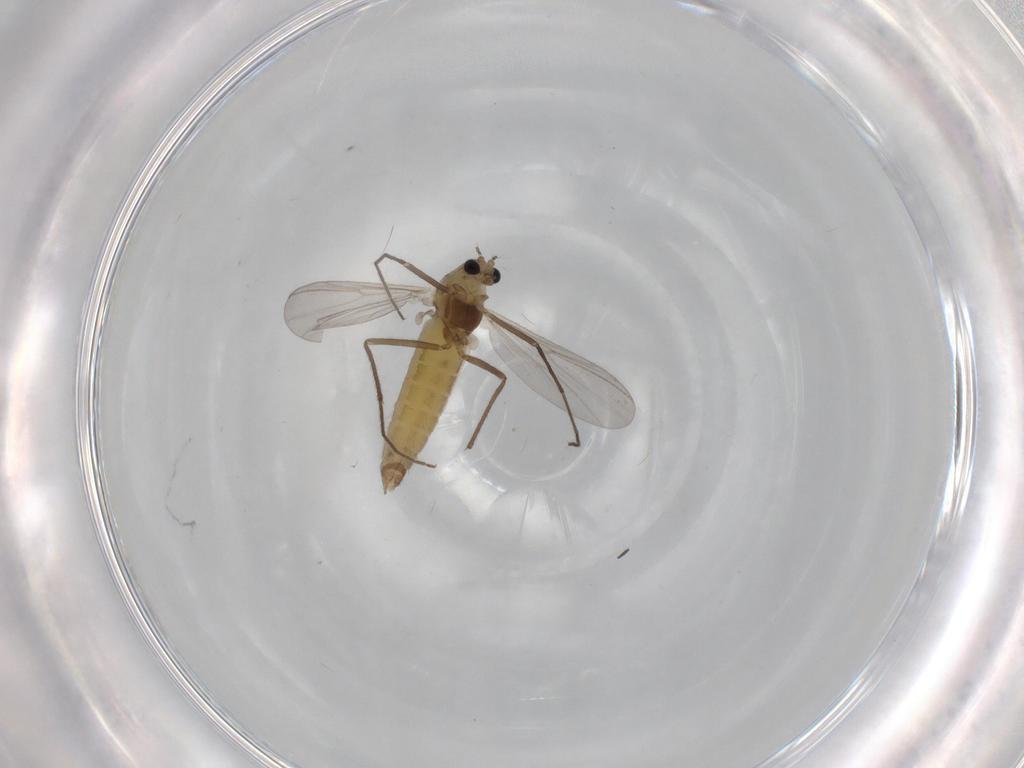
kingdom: Animalia
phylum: Arthropoda
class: Insecta
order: Diptera
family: Chironomidae
